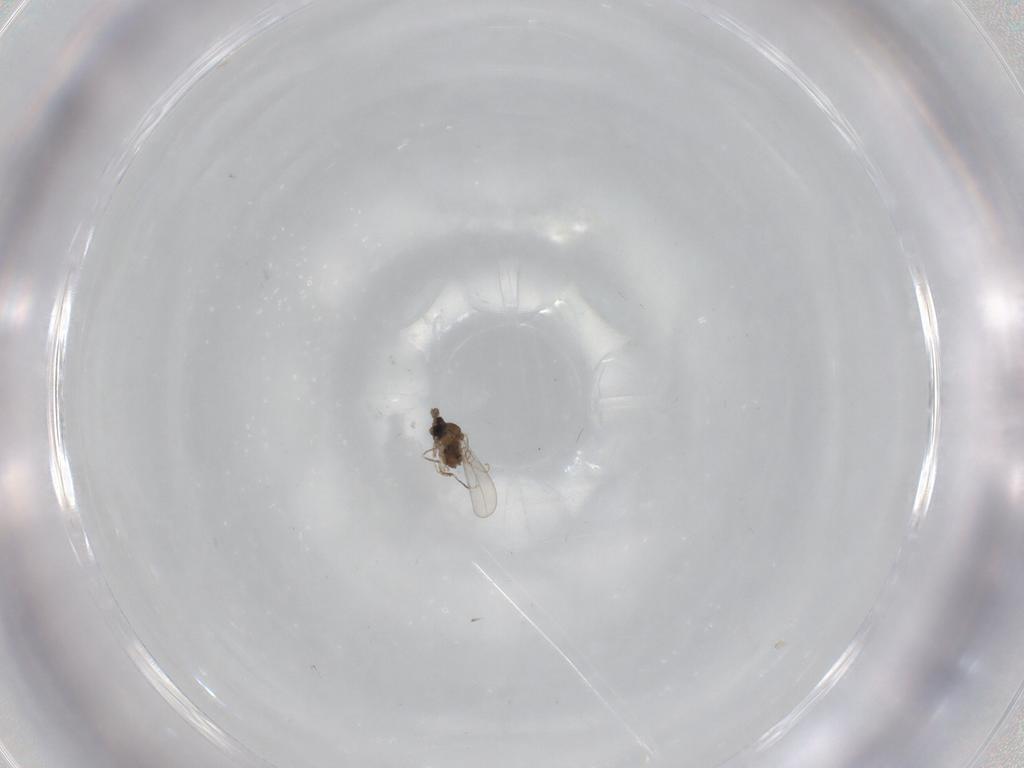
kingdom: Animalia
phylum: Arthropoda
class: Insecta
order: Diptera
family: Cecidomyiidae
